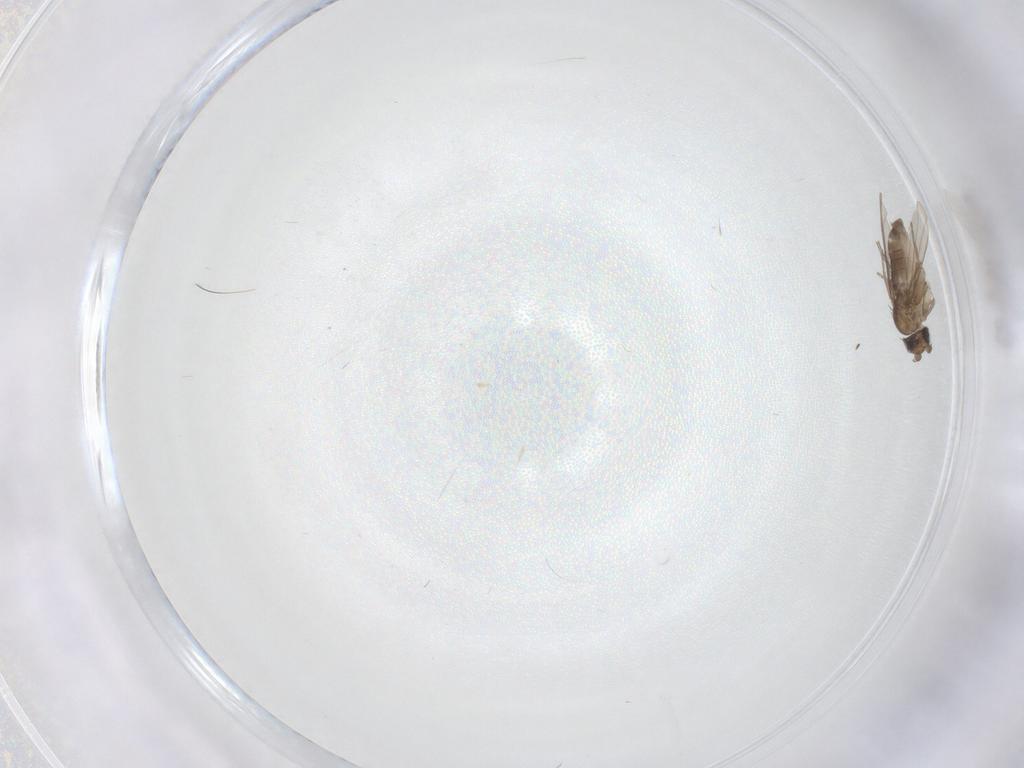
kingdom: Animalia
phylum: Arthropoda
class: Insecta
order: Diptera
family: Phoridae
